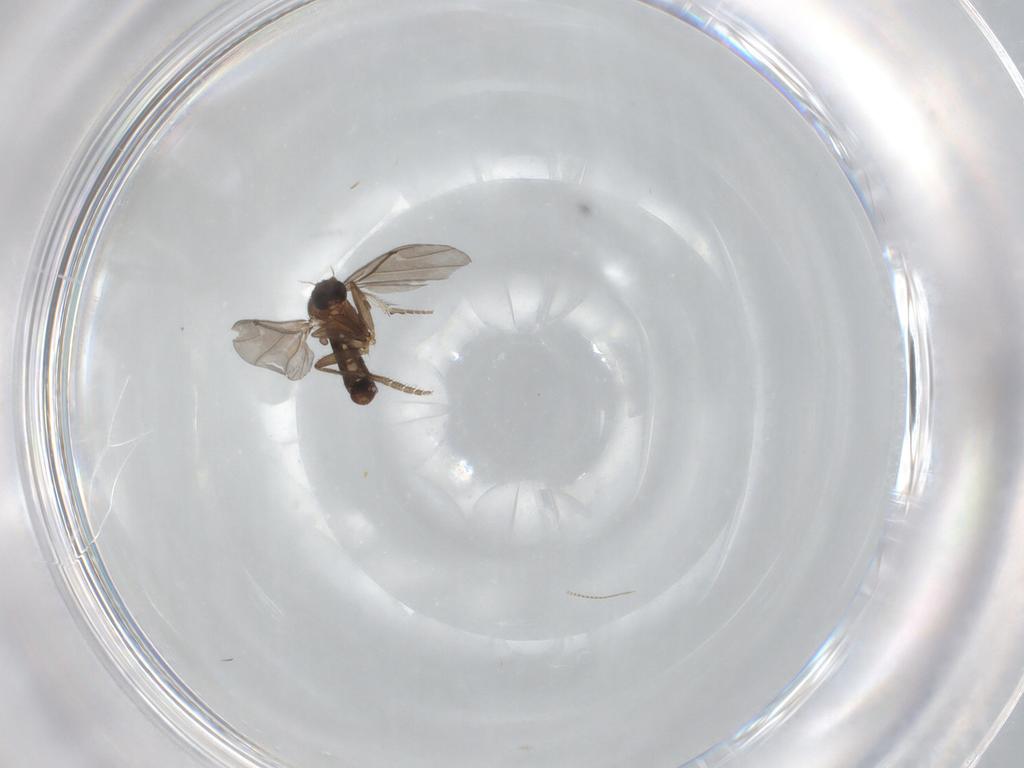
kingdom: Animalia
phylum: Arthropoda
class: Insecta
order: Diptera
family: Phoridae
